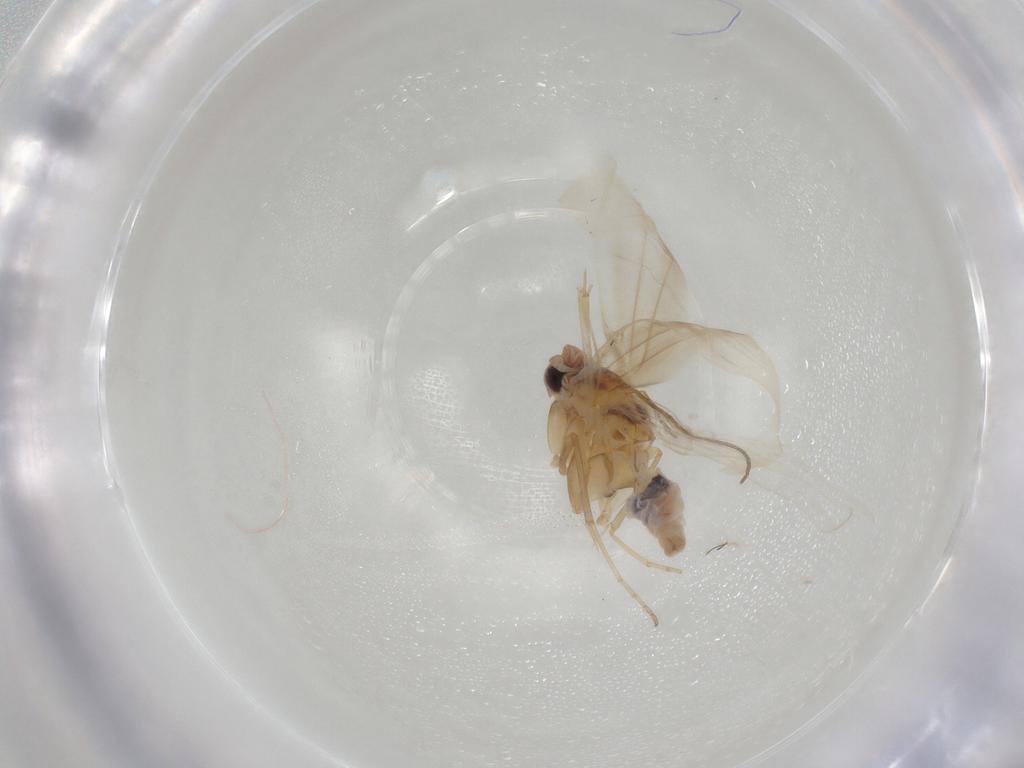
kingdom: Animalia
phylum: Arthropoda
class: Insecta
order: Lepidoptera
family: Gelechiidae
